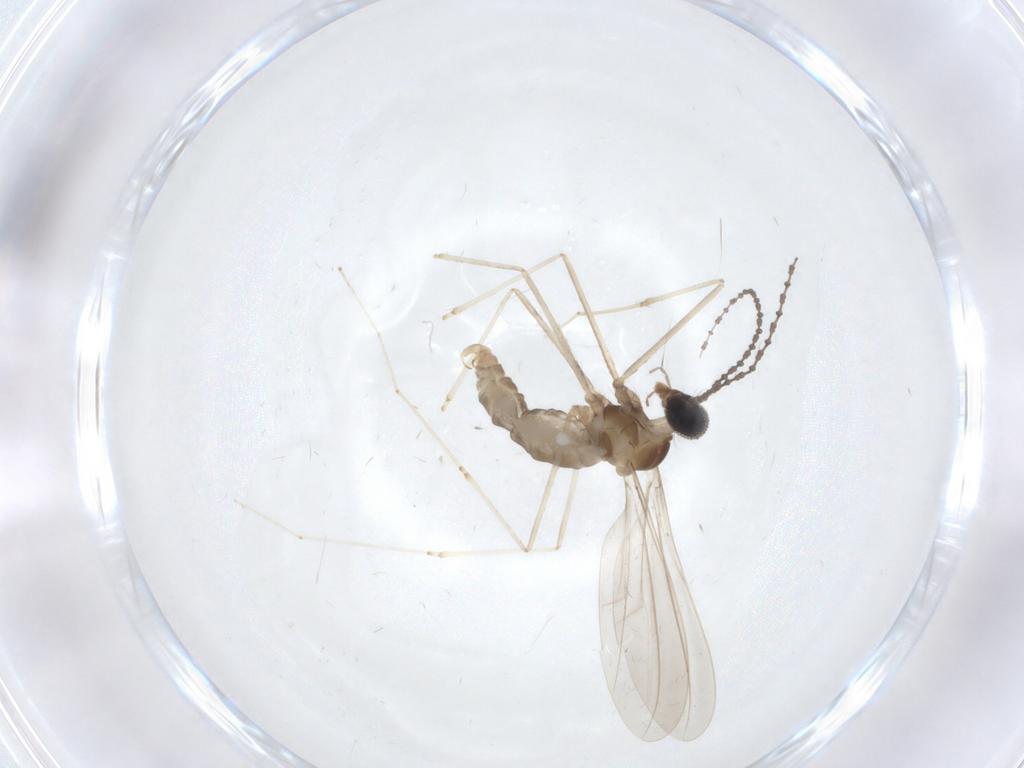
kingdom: Animalia
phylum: Arthropoda
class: Insecta
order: Diptera
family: Cecidomyiidae
